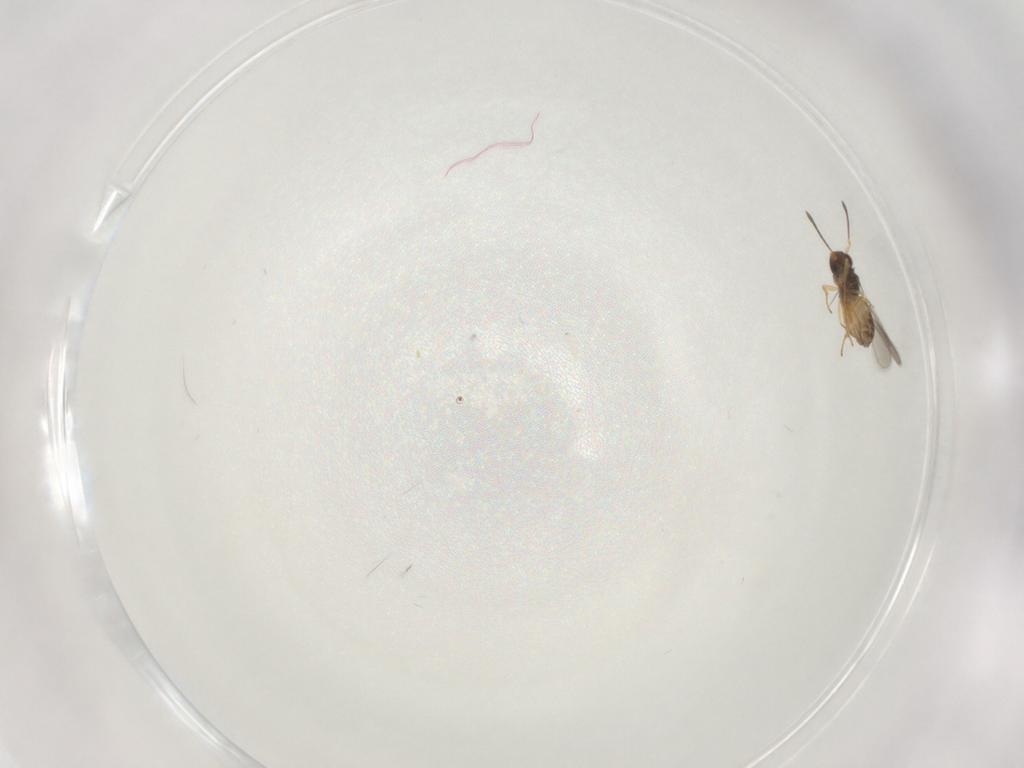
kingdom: Animalia
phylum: Arthropoda
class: Insecta
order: Hymenoptera
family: Mymaridae
